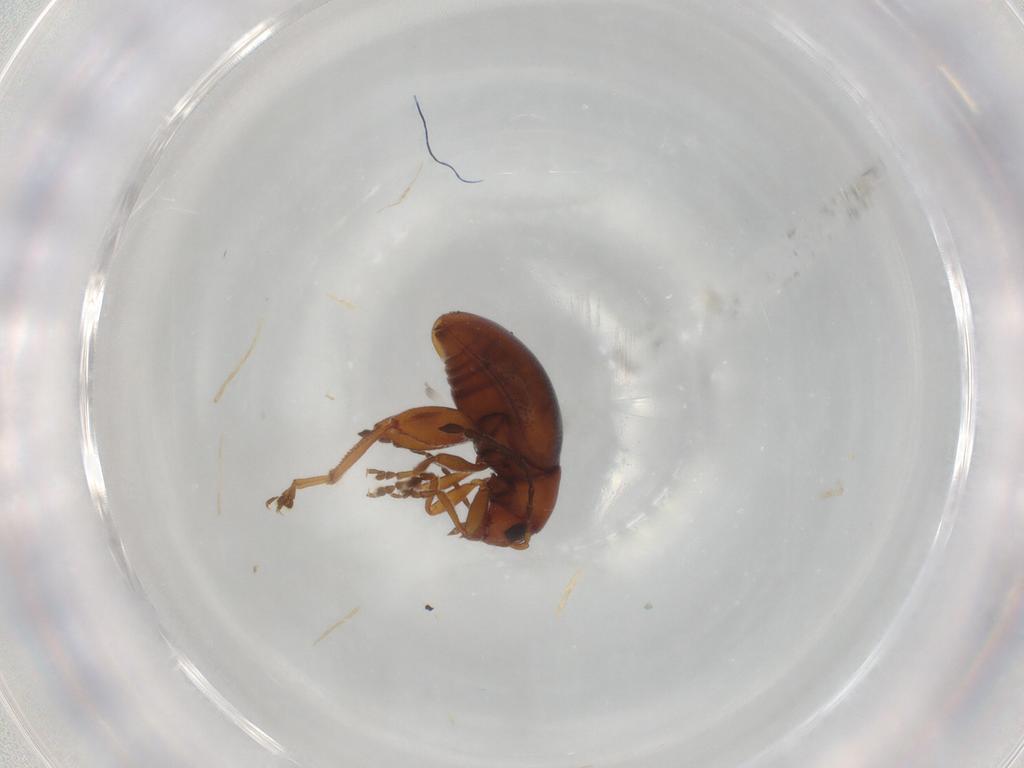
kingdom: Animalia
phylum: Arthropoda
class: Insecta
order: Coleoptera
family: Chrysomelidae
